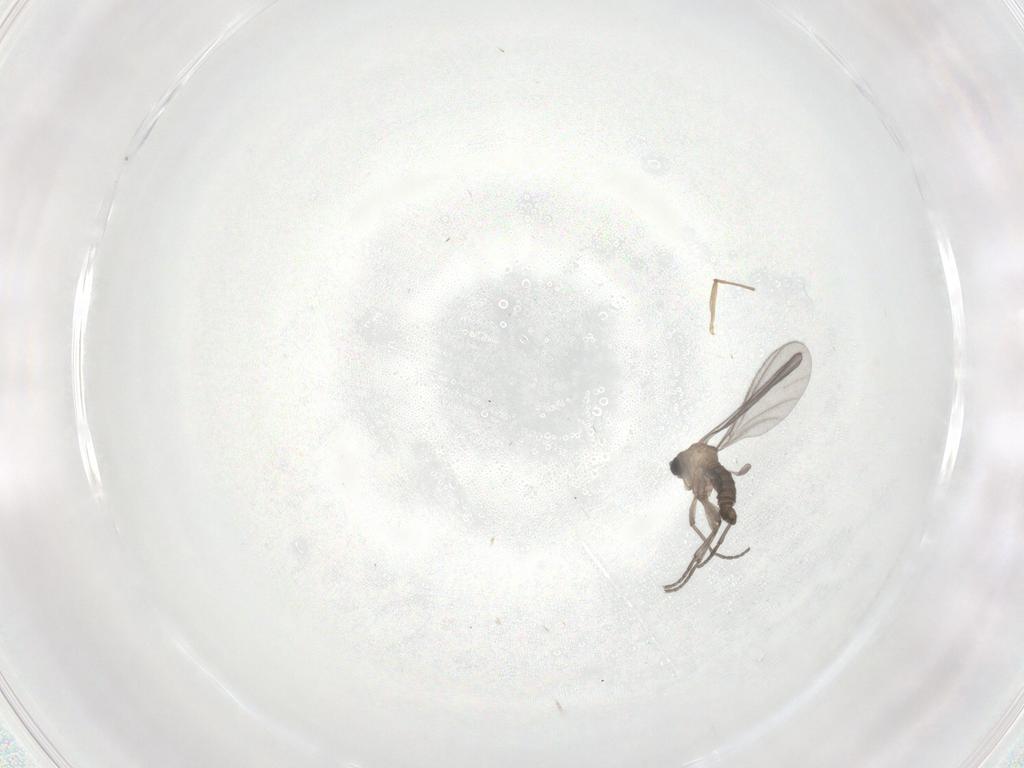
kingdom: Animalia
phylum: Arthropoda
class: Insecta
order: Diptera
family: Sciaridae
